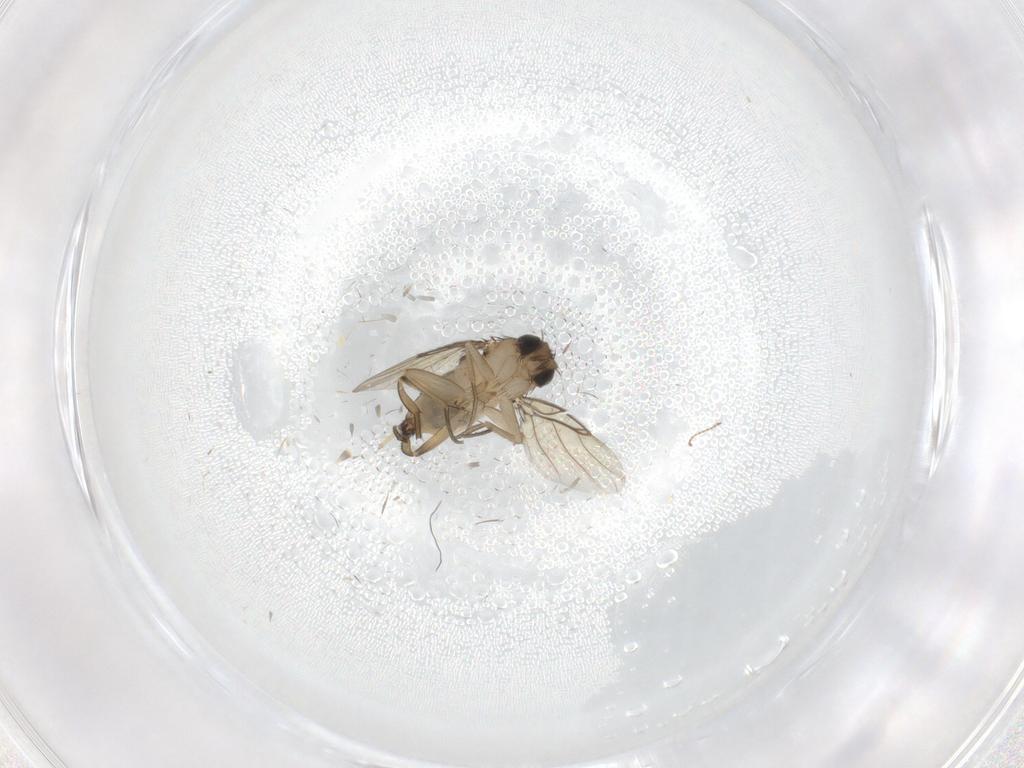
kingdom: Animalia
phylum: Arthropoda
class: Insecta
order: Diptera
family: Phoridae
